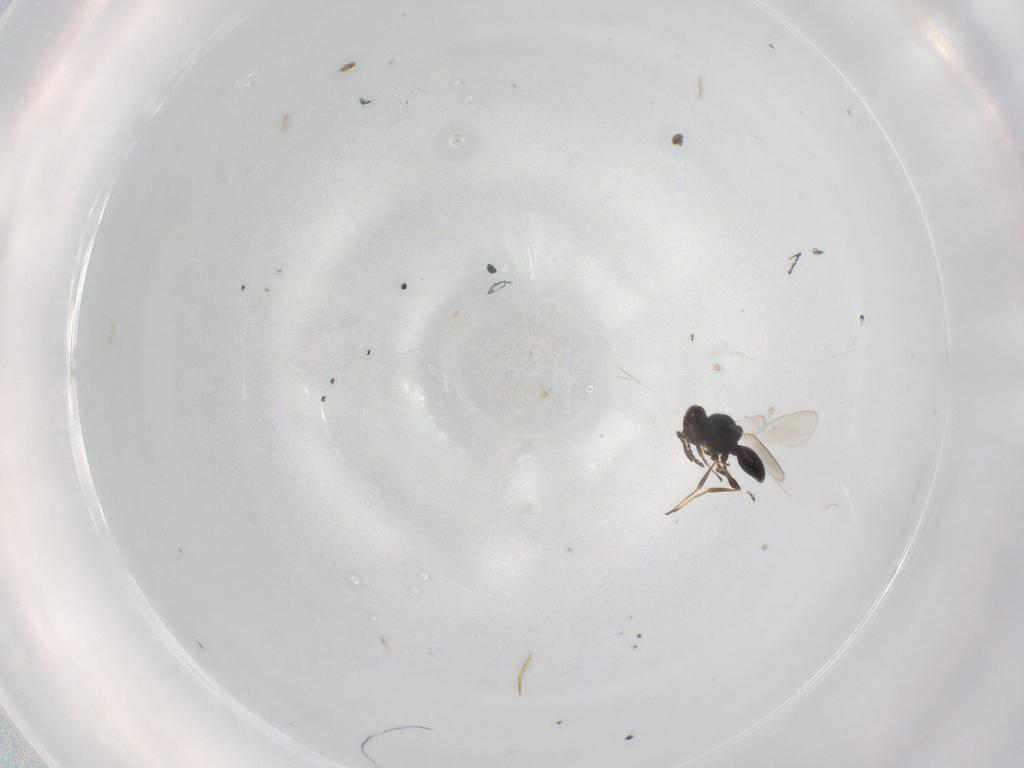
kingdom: Animalia
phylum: Arthropoda
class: Insecta
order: Hymenoptera
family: Platygastridae
